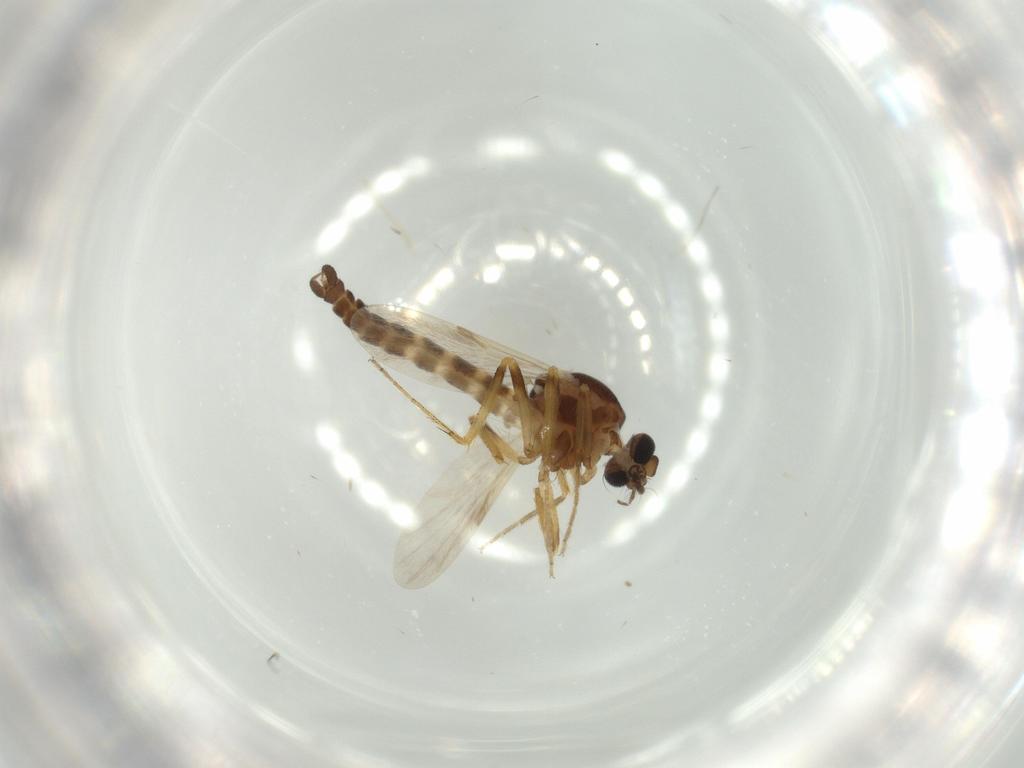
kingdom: Animalia
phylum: Arthropoda
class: Insecta
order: Diptera
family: Ceratopogonidae
